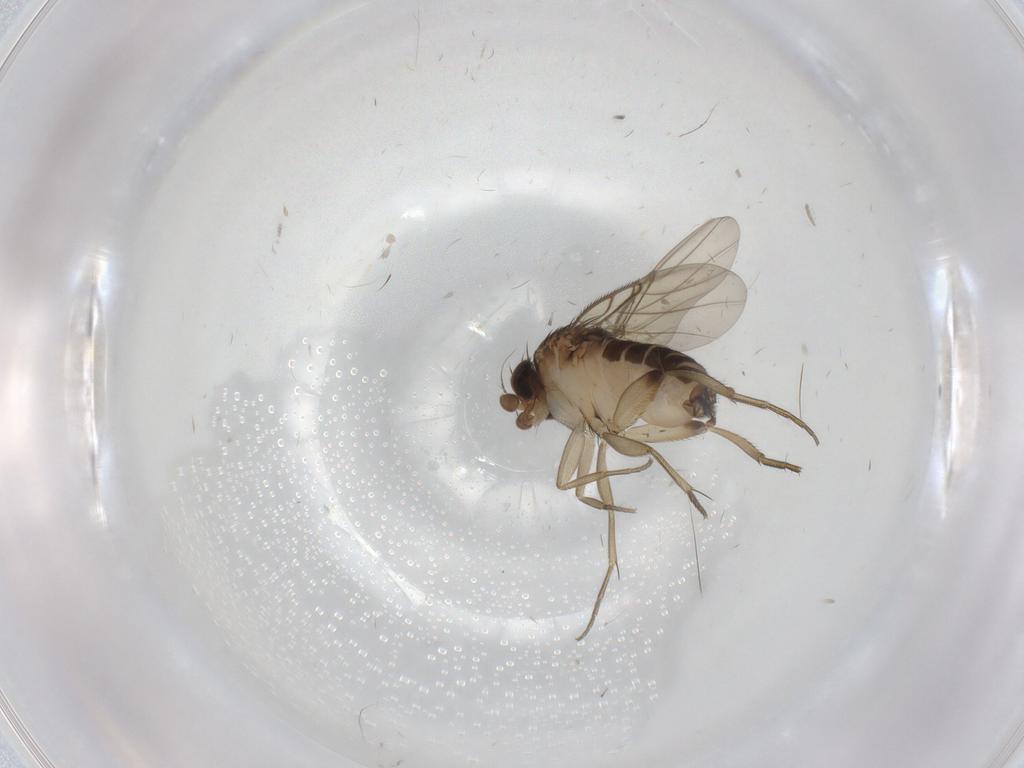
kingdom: Animalia
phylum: Arthropoda
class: Insecta
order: Diptera
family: Phoridae
